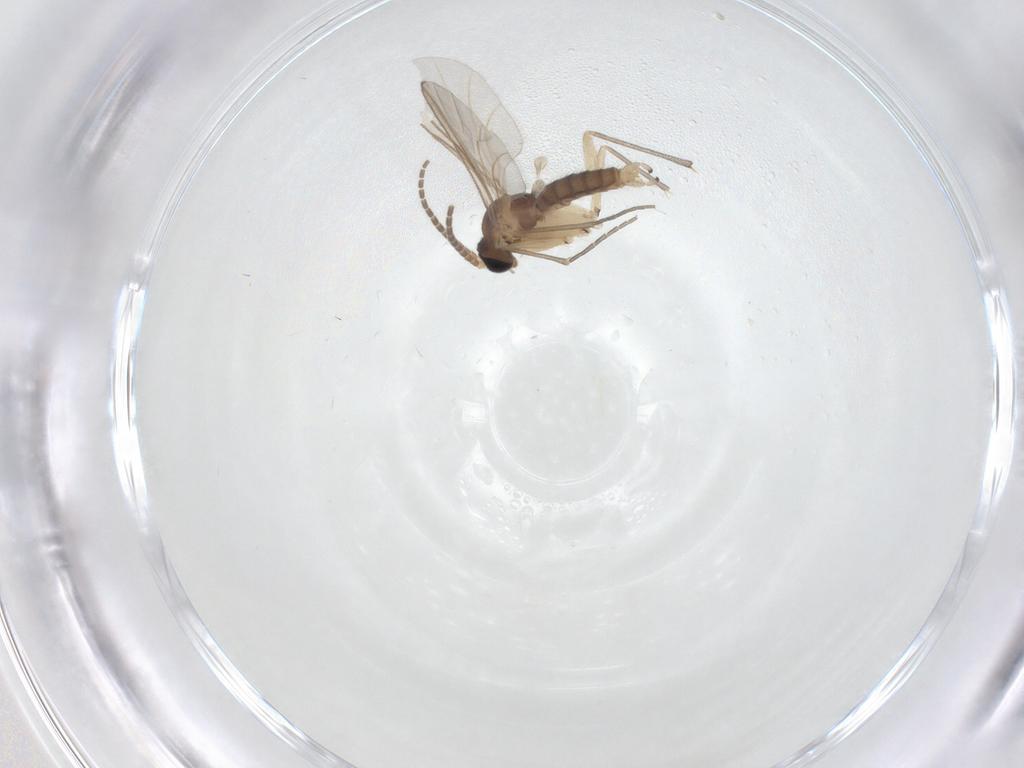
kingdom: Animalia
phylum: Arthropoda
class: Insecta
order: Diptera
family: Sciaridae
